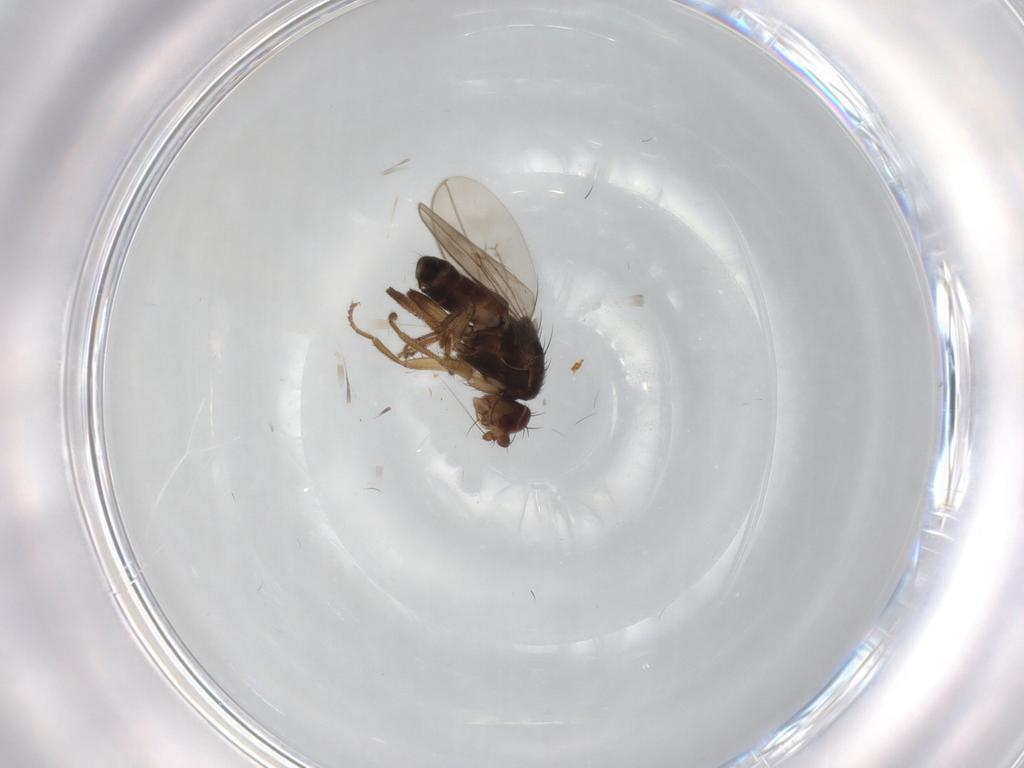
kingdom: Animalia
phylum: Arthropoda
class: Insecta
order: Diptera
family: Sphaeroceridae
